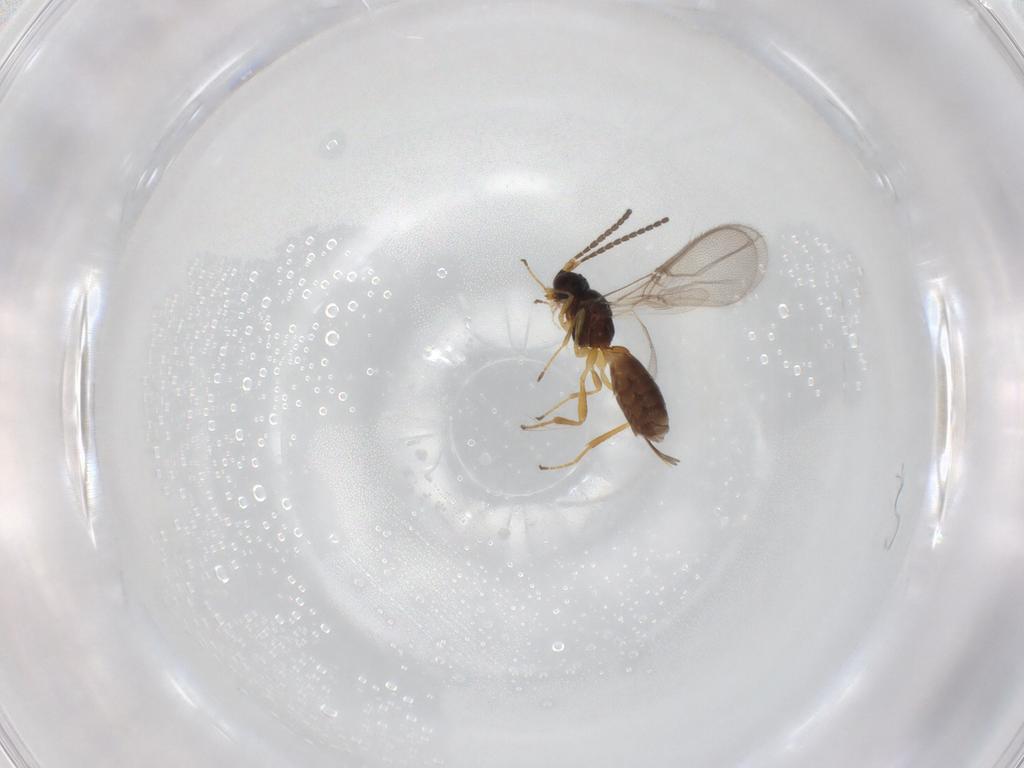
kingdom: Animalia
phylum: Arthropoda
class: Insecta
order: Hymenoptera
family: Braconidae
